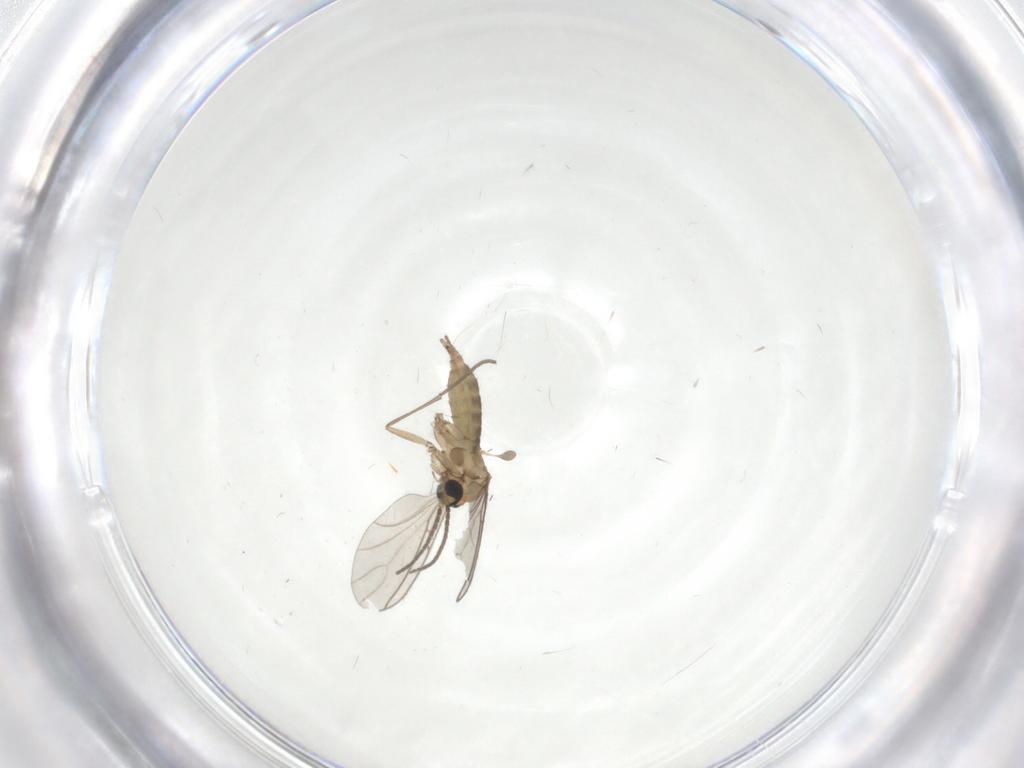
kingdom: Animalia
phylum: Arthropoda
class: Insecta
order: Diptera
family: Sciaridae
